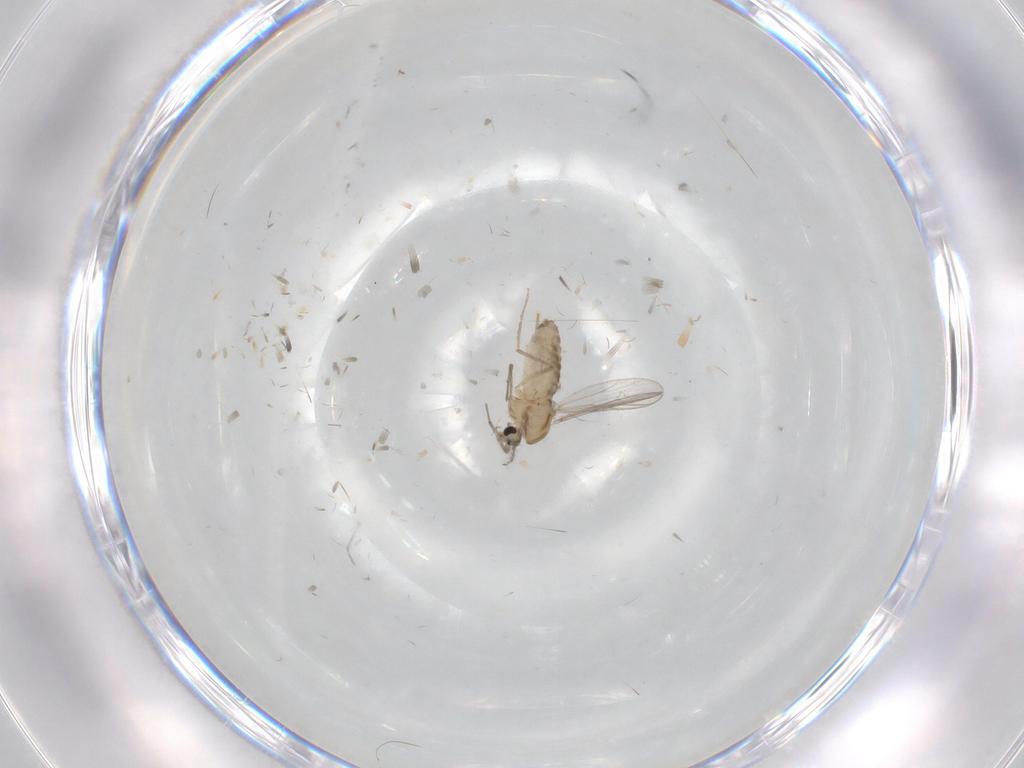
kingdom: Animalia
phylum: Arthropoda
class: Insecta
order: Diptera
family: Chironomidae
